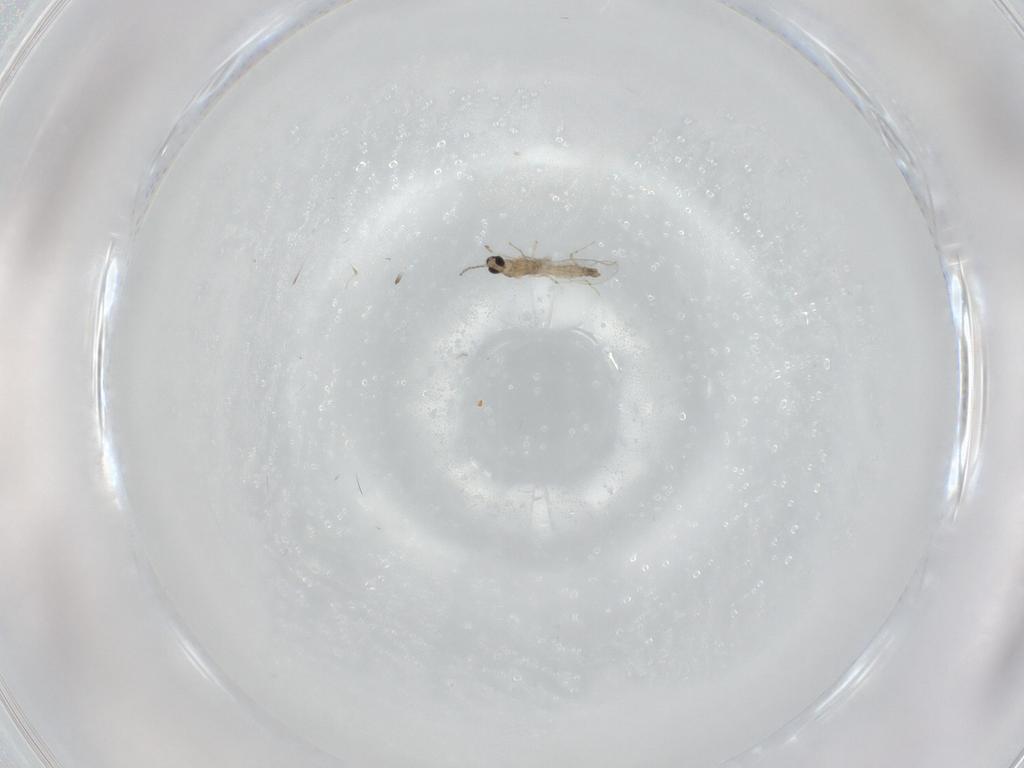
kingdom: Animalia
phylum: Arthropoda
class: Insecta
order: Diptera
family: Cecidomyiidae
